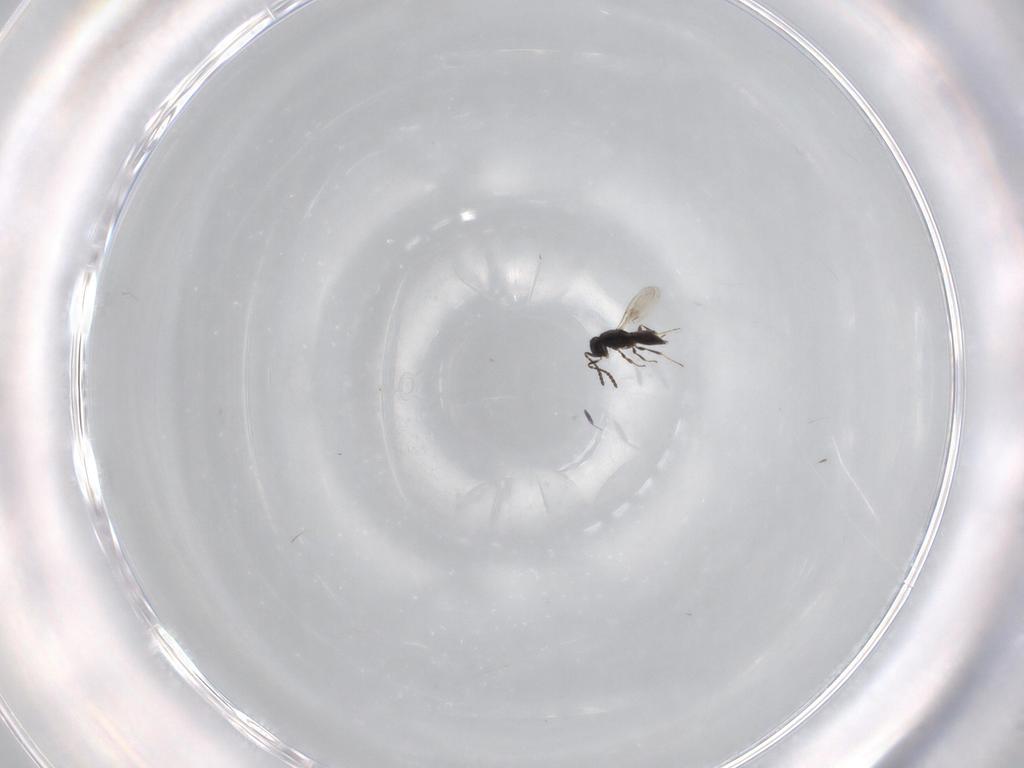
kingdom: Animalia
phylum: Arthropoda
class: Insecta
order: Hymenoptera
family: Scelionidae
